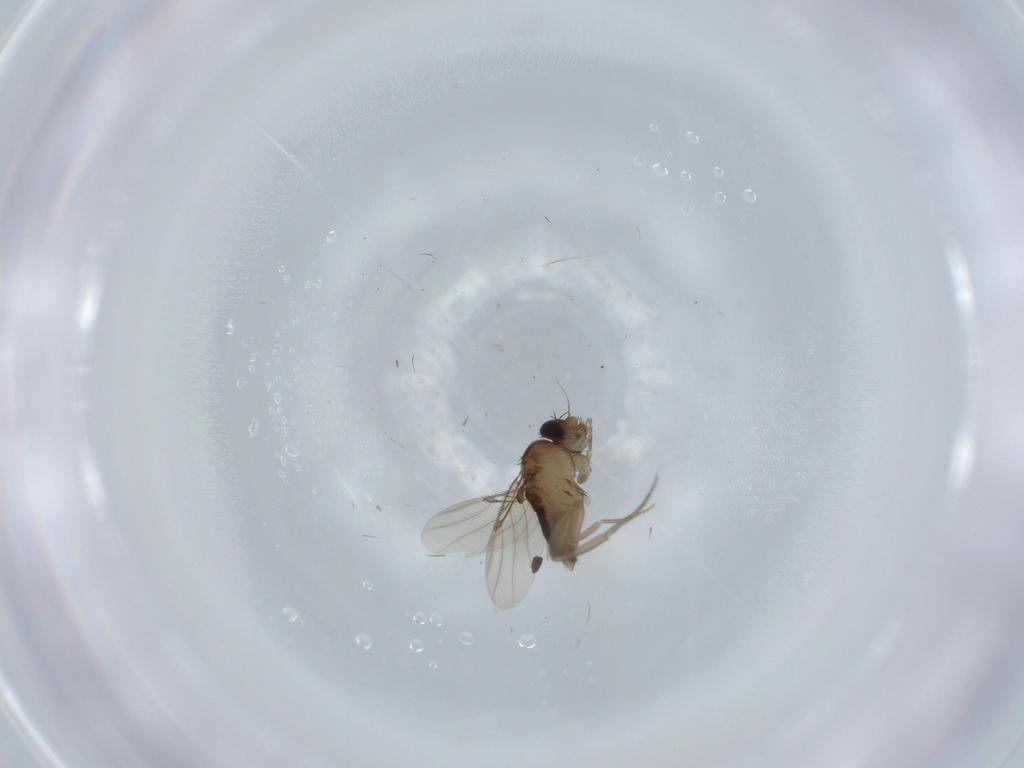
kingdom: Animalia
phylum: Arthropoda
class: Insecta
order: Diptera
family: Phoridae
